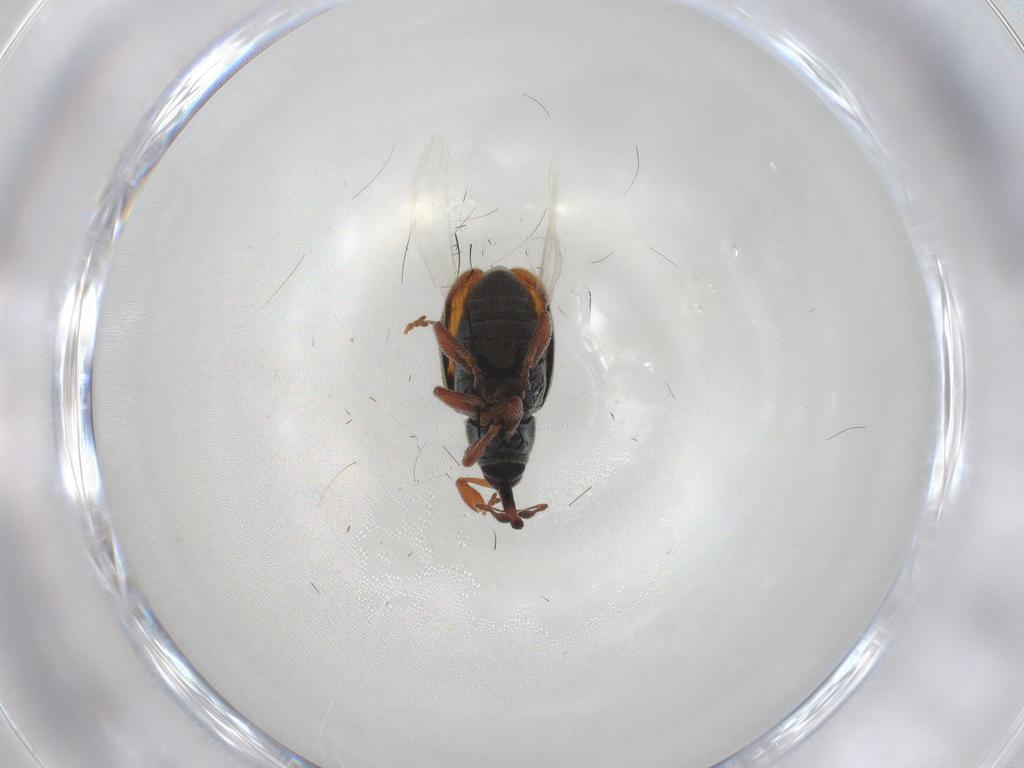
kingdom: Animalia
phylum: Arthropoda
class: Insecta
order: Coleoptera
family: Curculionidae
